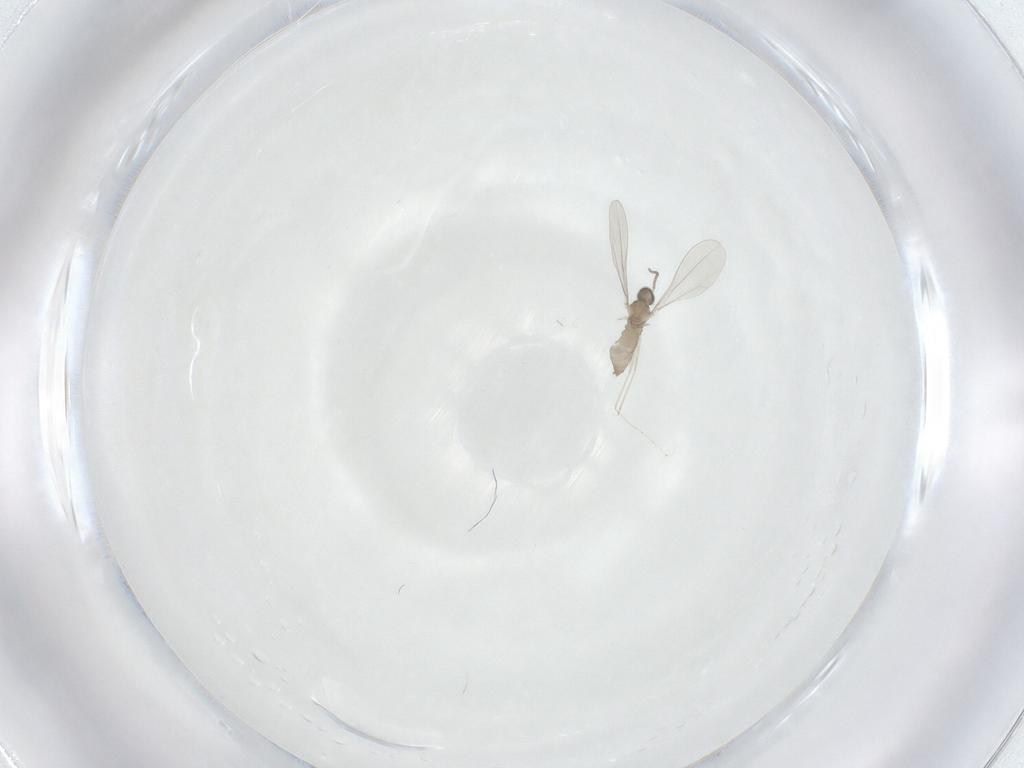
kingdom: Animalia
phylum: Arthropoda
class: Insecta
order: Diptera
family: Cecidomyiidae
